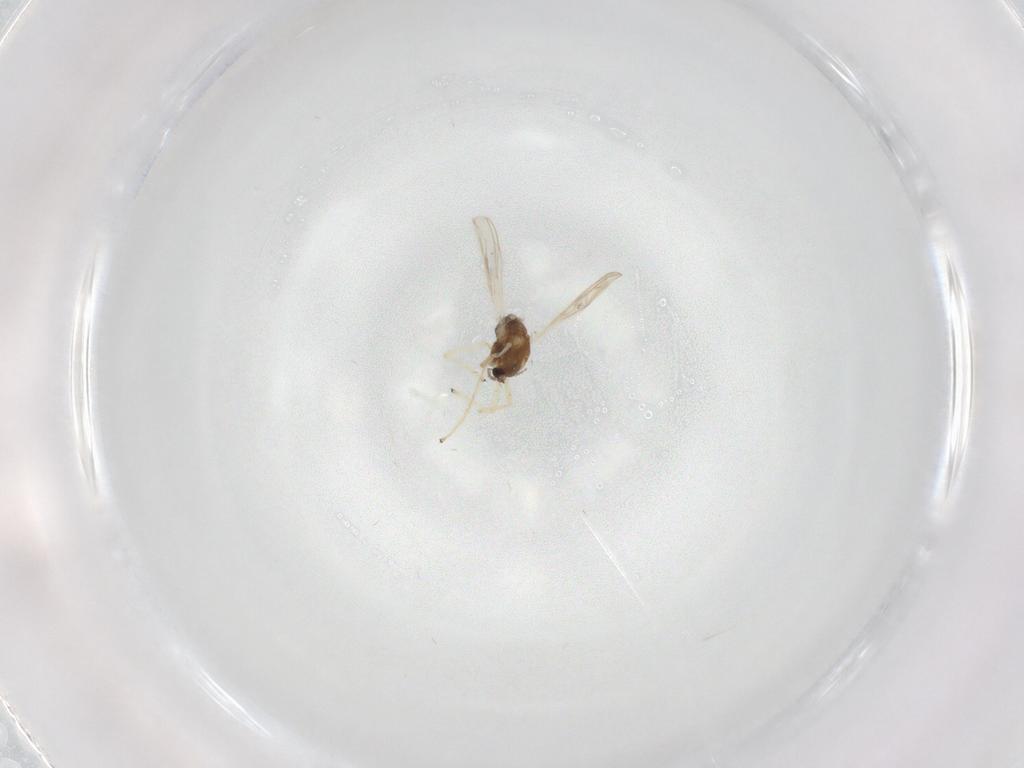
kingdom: Animalia
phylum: Arthropoda
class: Insecta
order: Diptera
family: Ceratopogonidae
